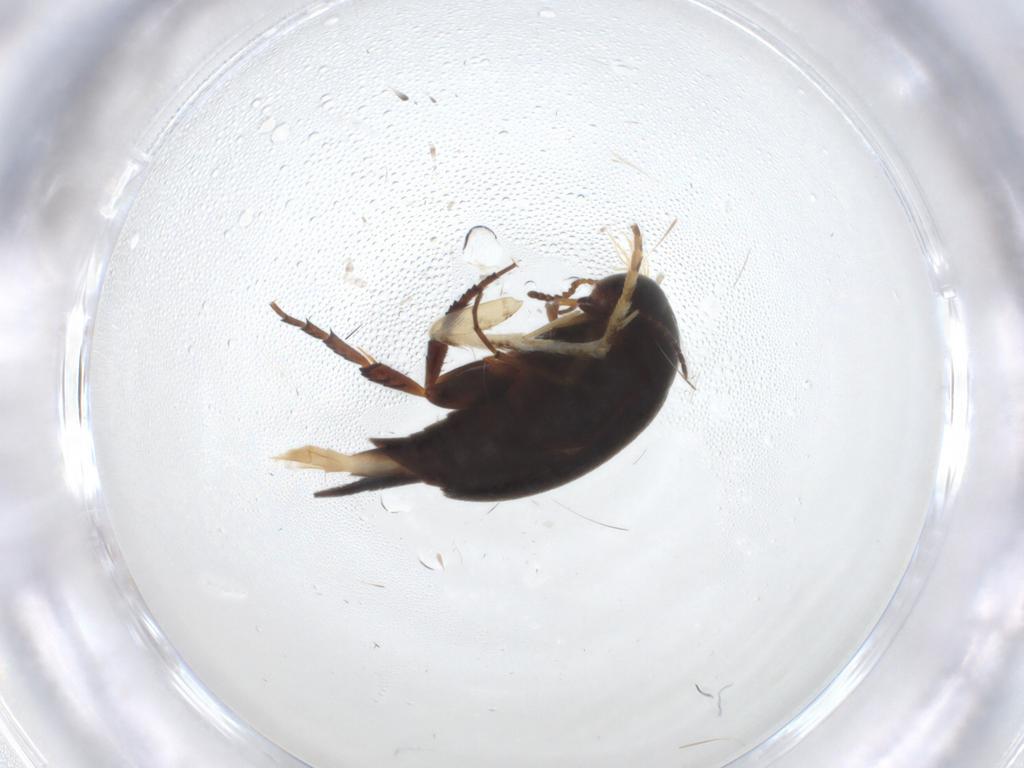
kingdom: Animalia
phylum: Arthropoda
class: Insecta
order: Coleoptera
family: Mordellidae
